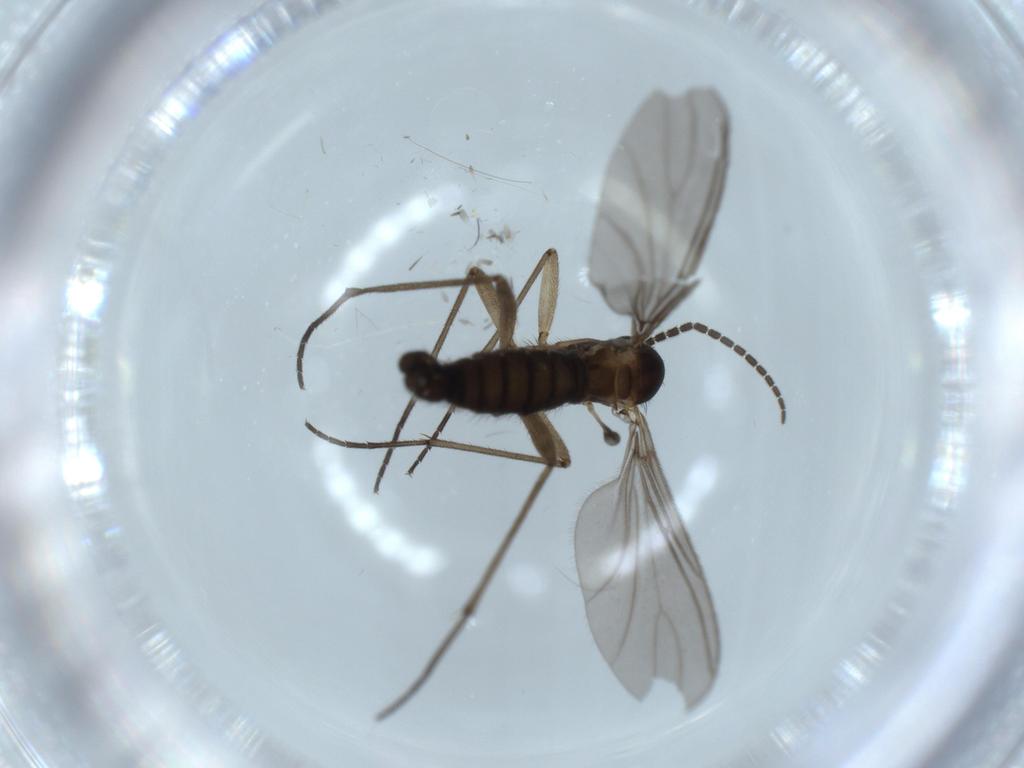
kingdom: Animalia
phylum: Arthropoda
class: Insecta
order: Diptera
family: Sciaridae
